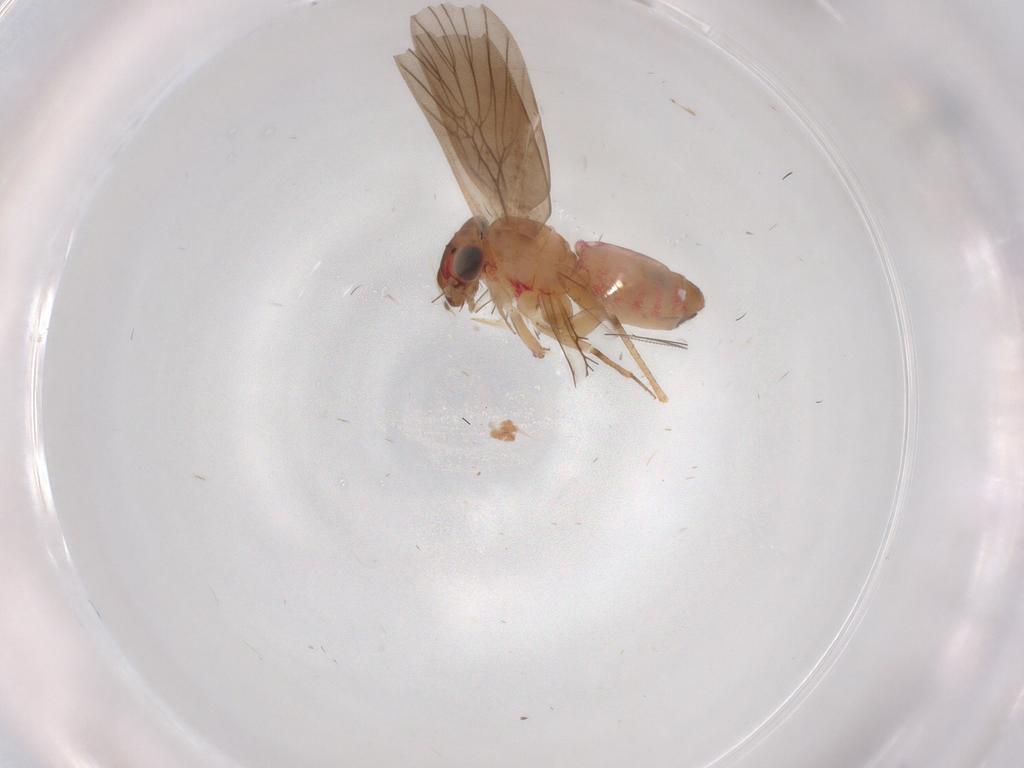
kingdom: Animalia
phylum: Arthropoda
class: Insecta
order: Psocodea
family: Lepidopsocidae
